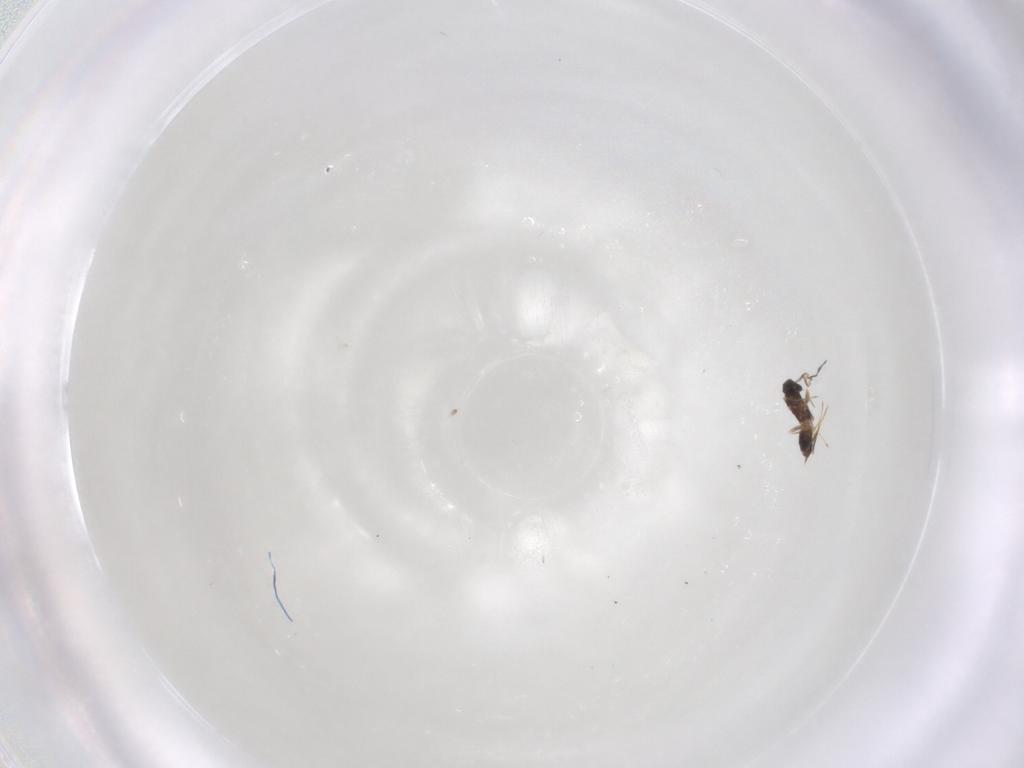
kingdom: Animalia
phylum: Arthropoda
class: Insecta
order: Hymenoptera
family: Mymaridae
